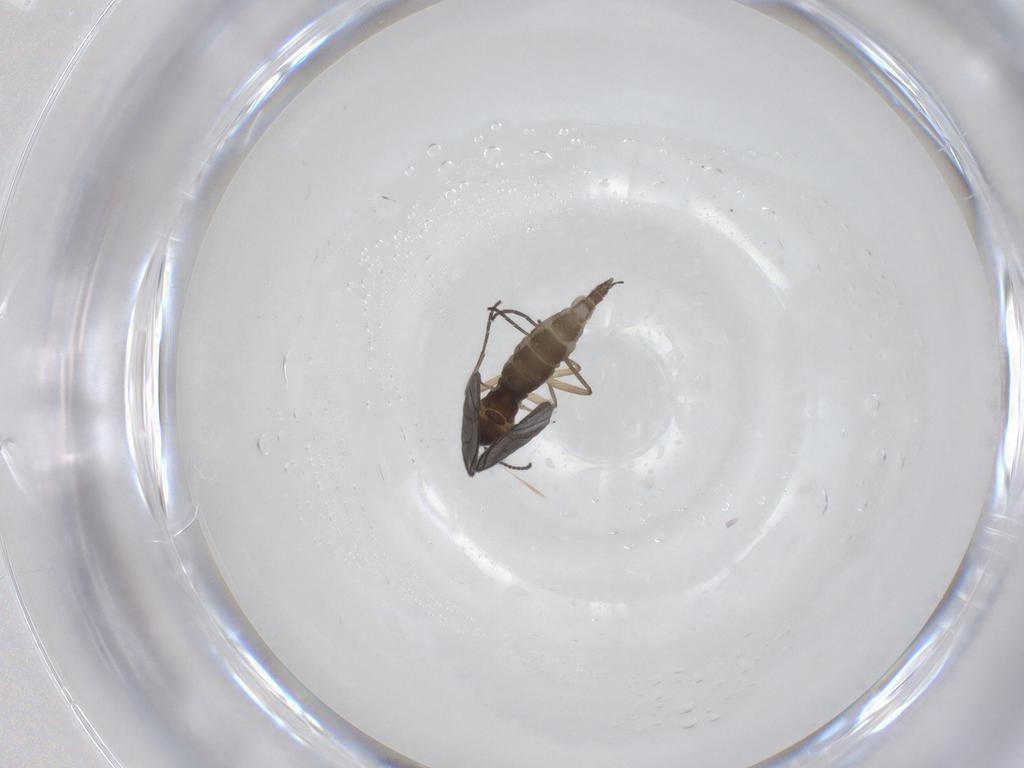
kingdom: Animalia
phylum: Arthropoda
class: Insecta
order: Diptera
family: Sciaridae
